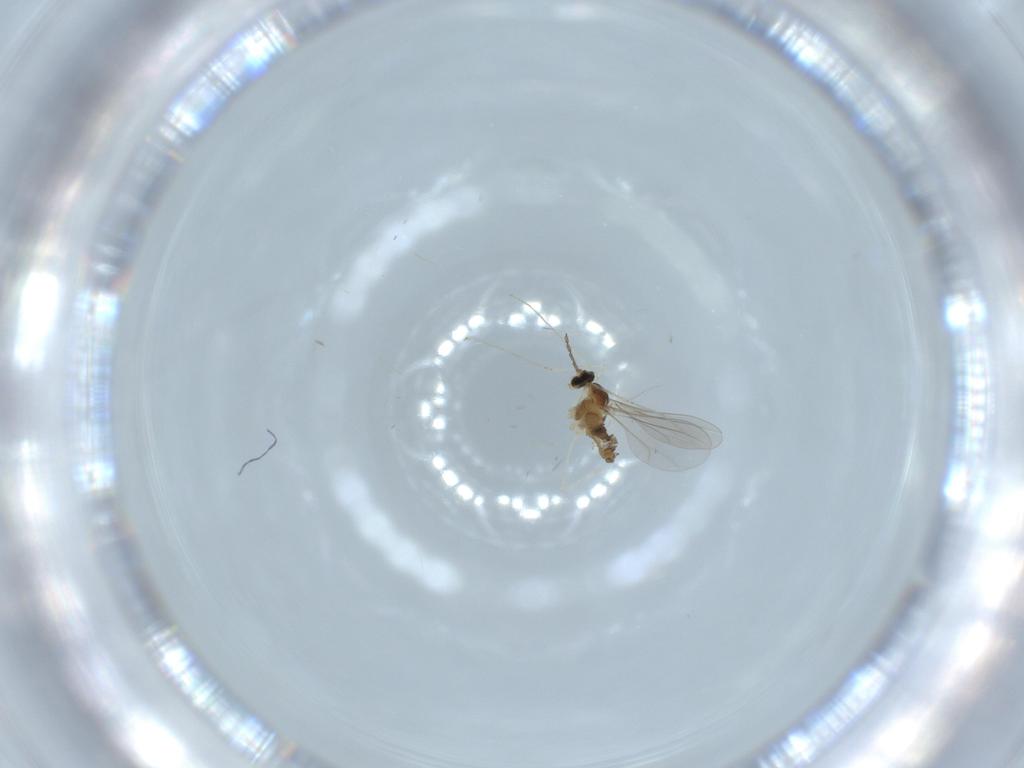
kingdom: Animalia
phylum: Arthropoda
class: Insecta
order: Diptera
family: Cecidomyiidae
